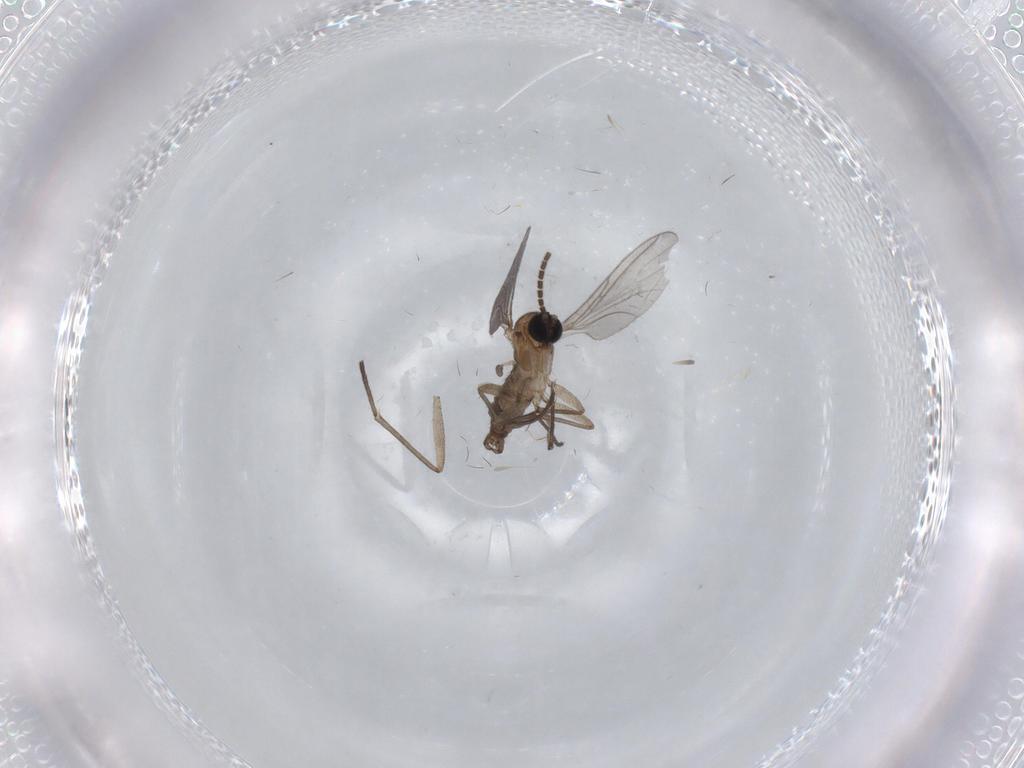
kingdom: Animalia
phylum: Arthropoda
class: Insecta
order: Diptera
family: Sciaridae
